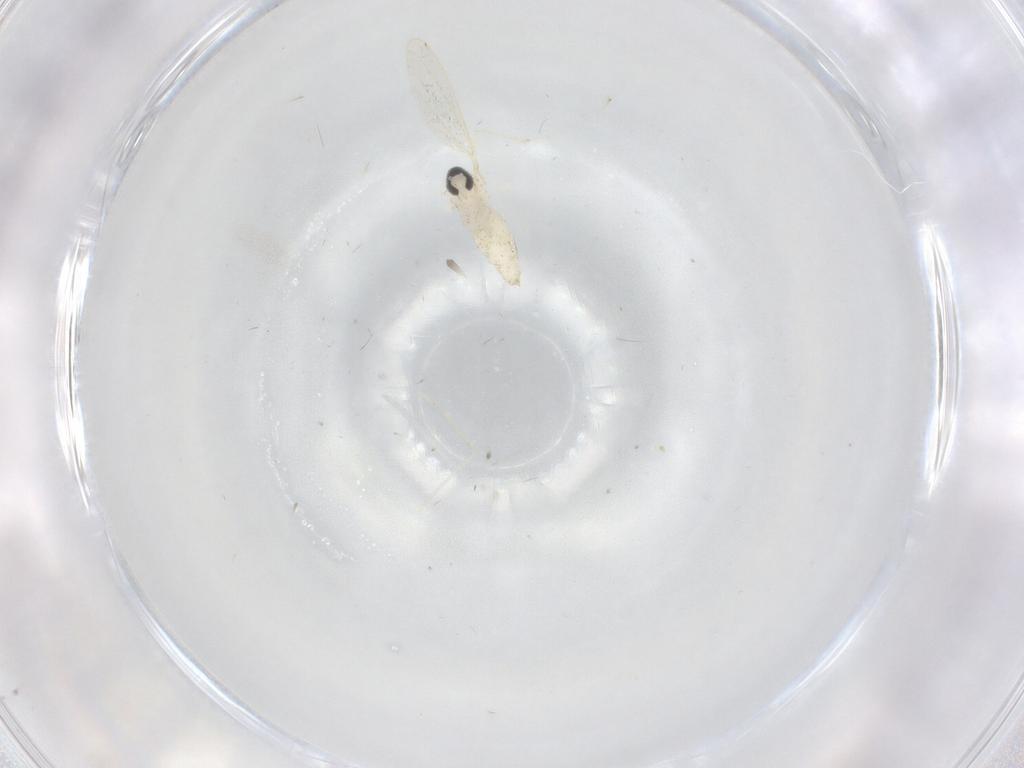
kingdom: Animalia
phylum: Arthropoda
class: Insecta
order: Diptera
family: Cecidomyiidae
